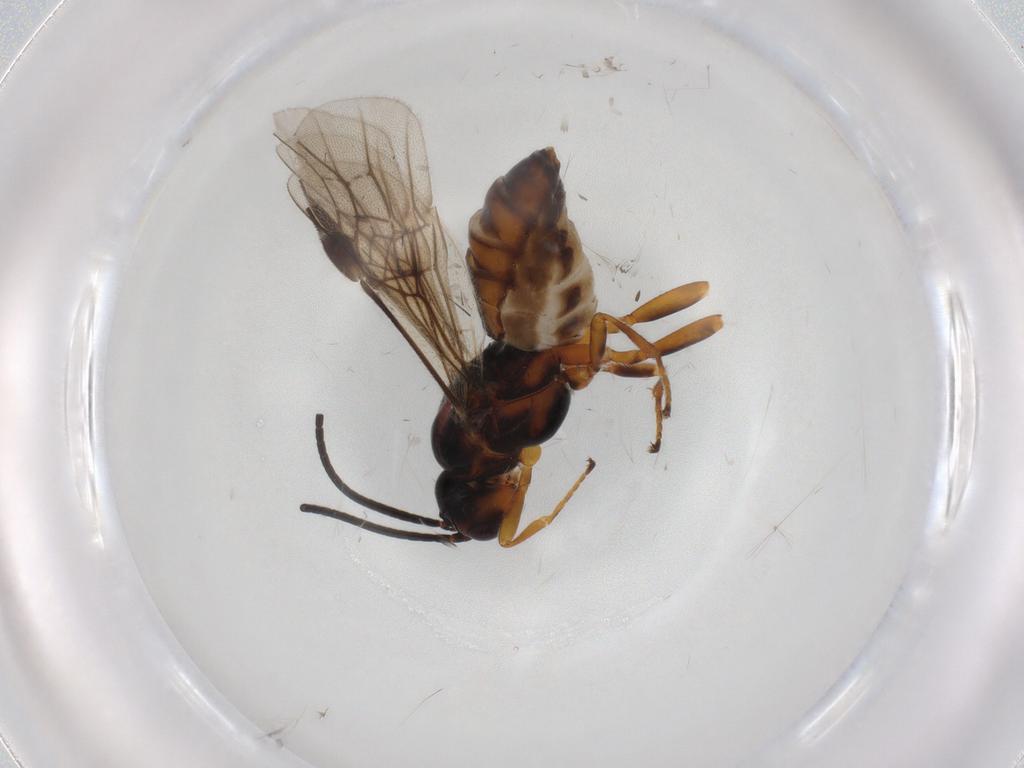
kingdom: Animalia
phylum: Arthropoda
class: Insecta
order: Hymenoptera
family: Braconidae
